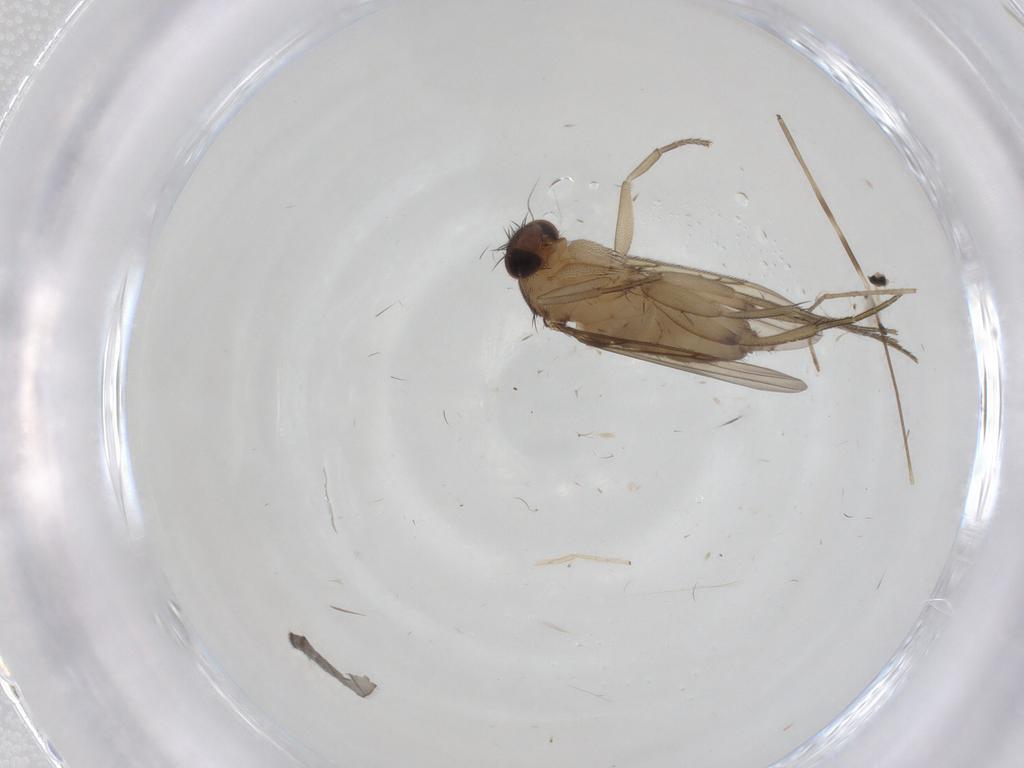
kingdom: Animalia
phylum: Arthropoda
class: Insecta
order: Diptera
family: Phoridae
